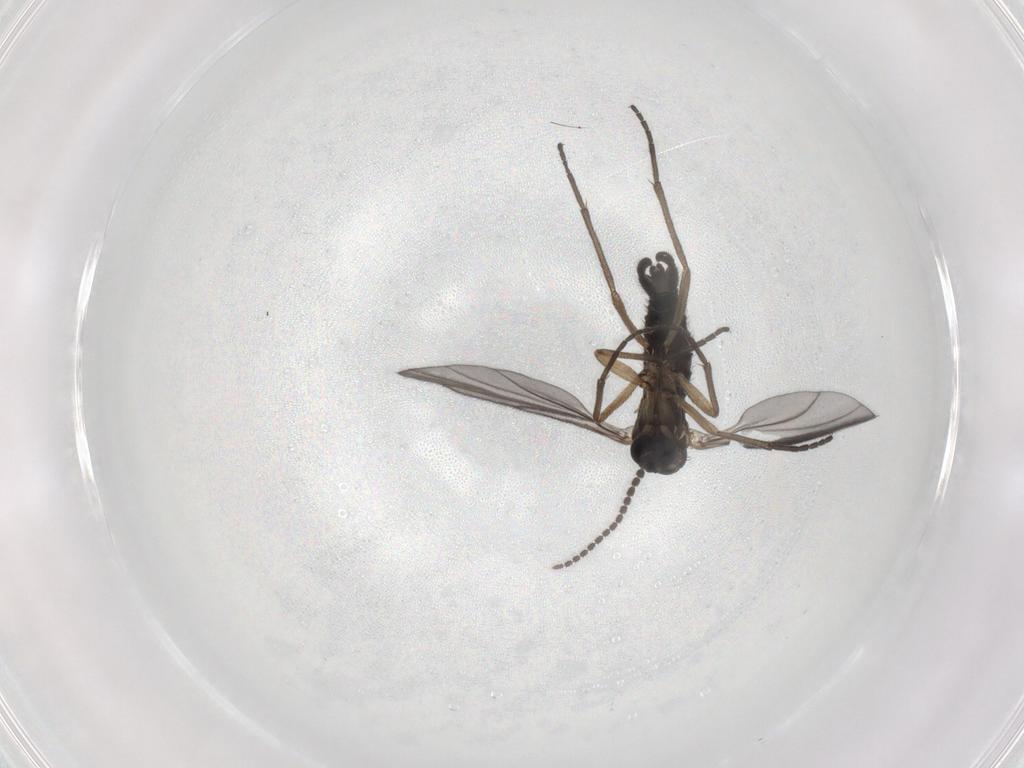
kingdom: Animalia
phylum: Arthropoda
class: Insecta
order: Diptera
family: Sciaridae
